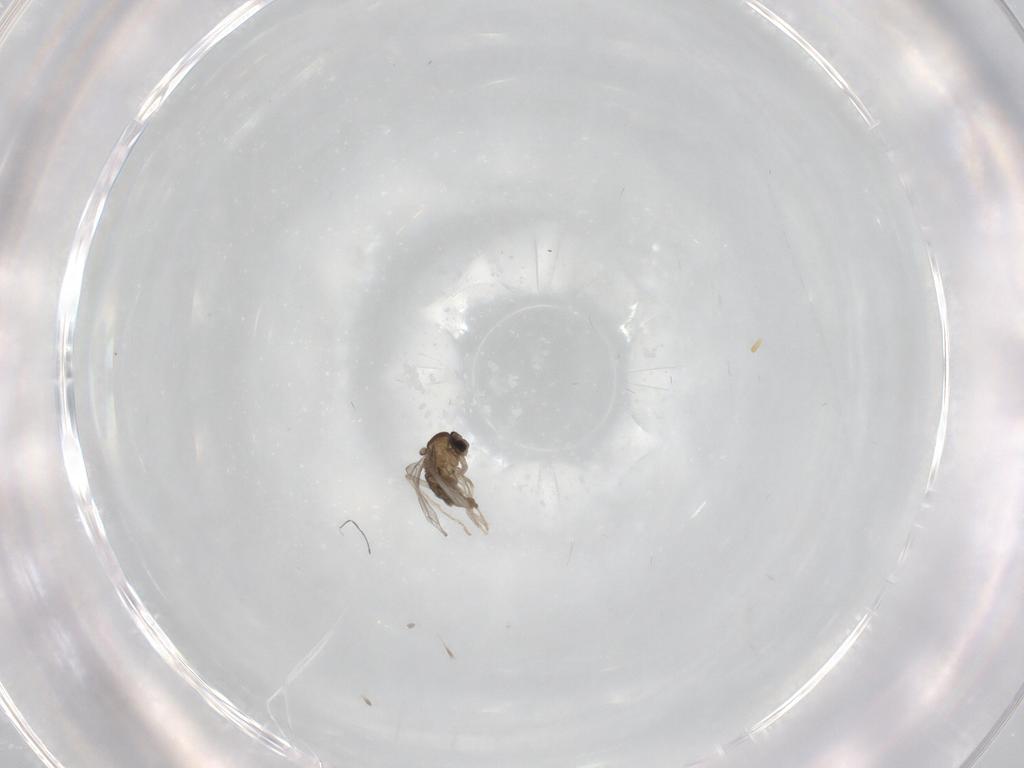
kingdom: Animalia
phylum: Arthropoda
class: Insecta
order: Diptera
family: Cecidomyiidae
